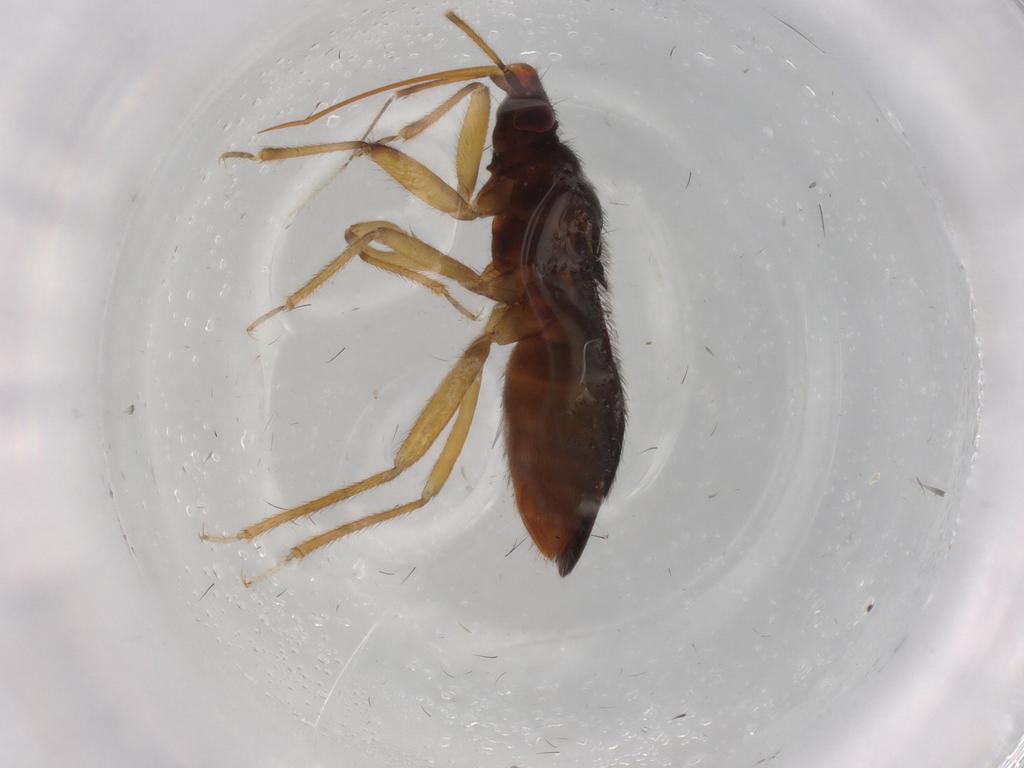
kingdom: Animalia
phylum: Arthropoda
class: Insecta
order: Hemiptera
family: Anthocoridae
